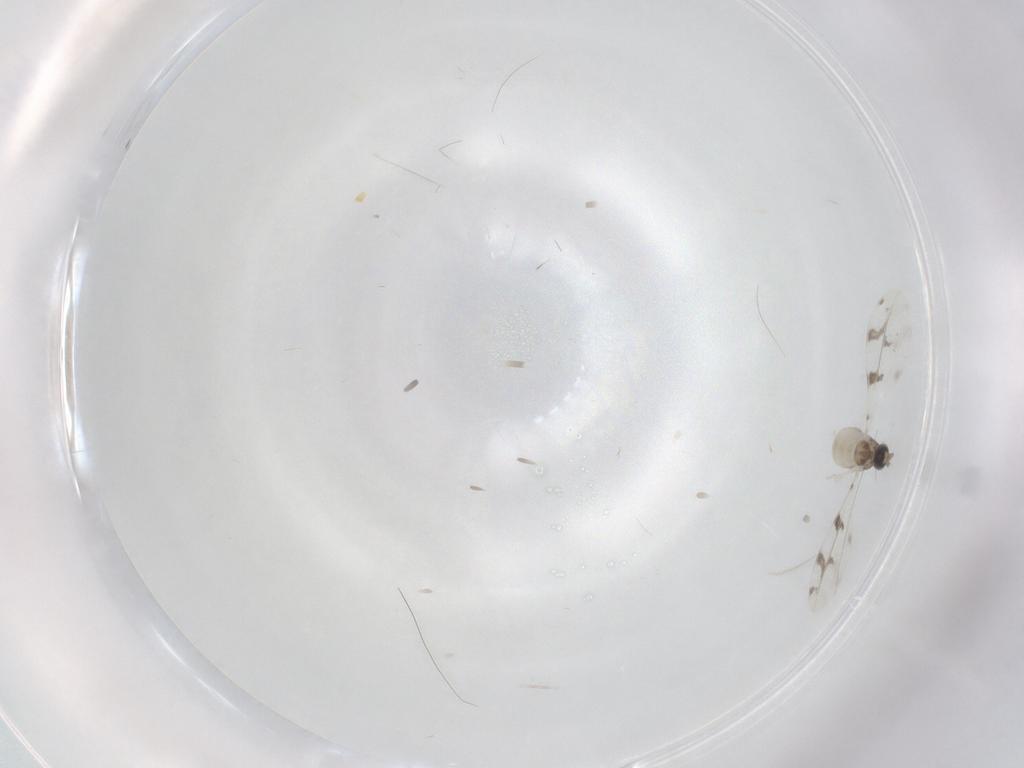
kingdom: Animalia
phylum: Arthropoda
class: Insecta
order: Diptera
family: Cecidomyiidae
